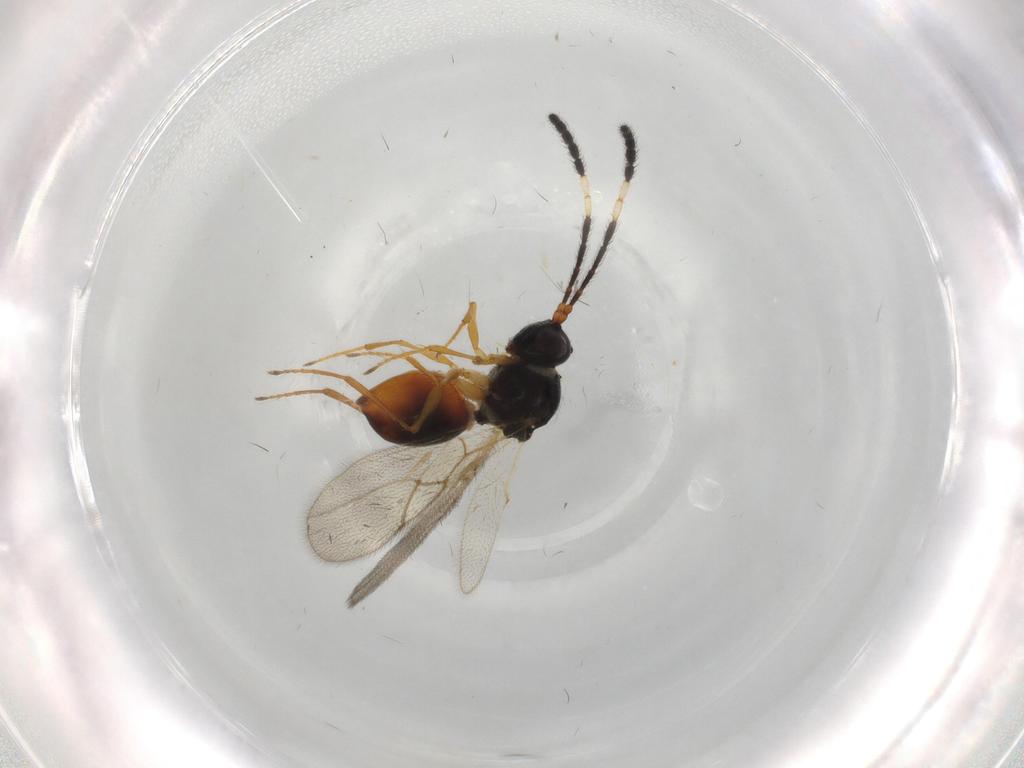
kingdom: Animalia
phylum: Arthropoda
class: Insecta
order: Hymenoptera
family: Figitidae
